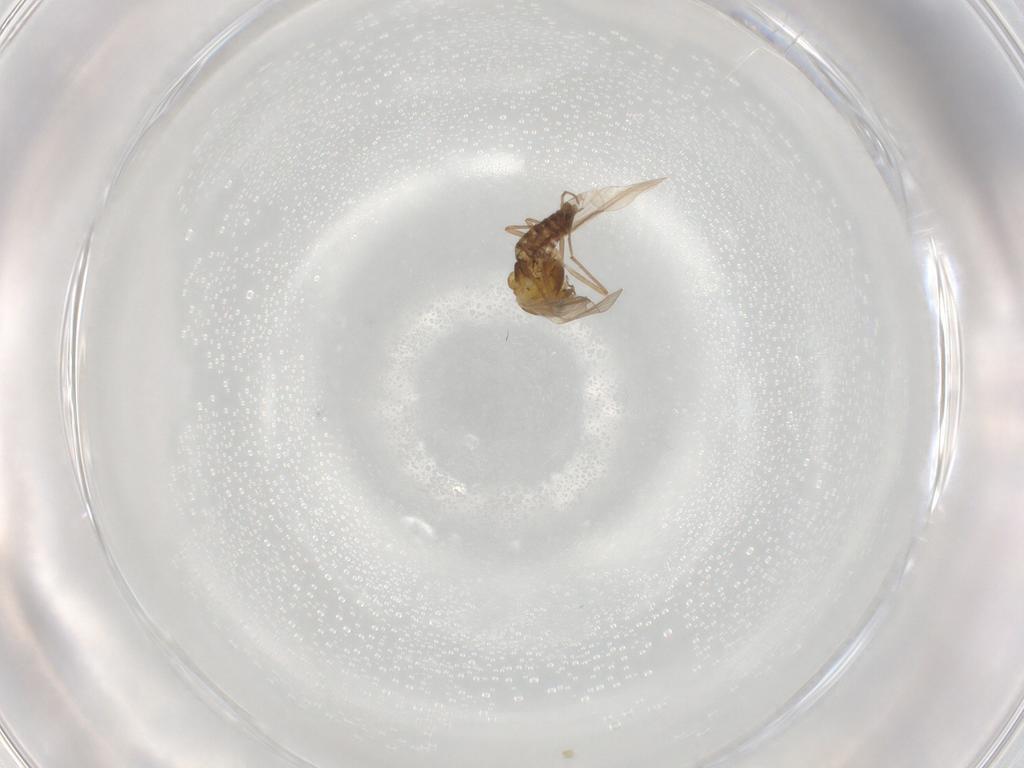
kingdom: Animalia
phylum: Arthropoda
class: Insecta
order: Diptera
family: Chironomidae
